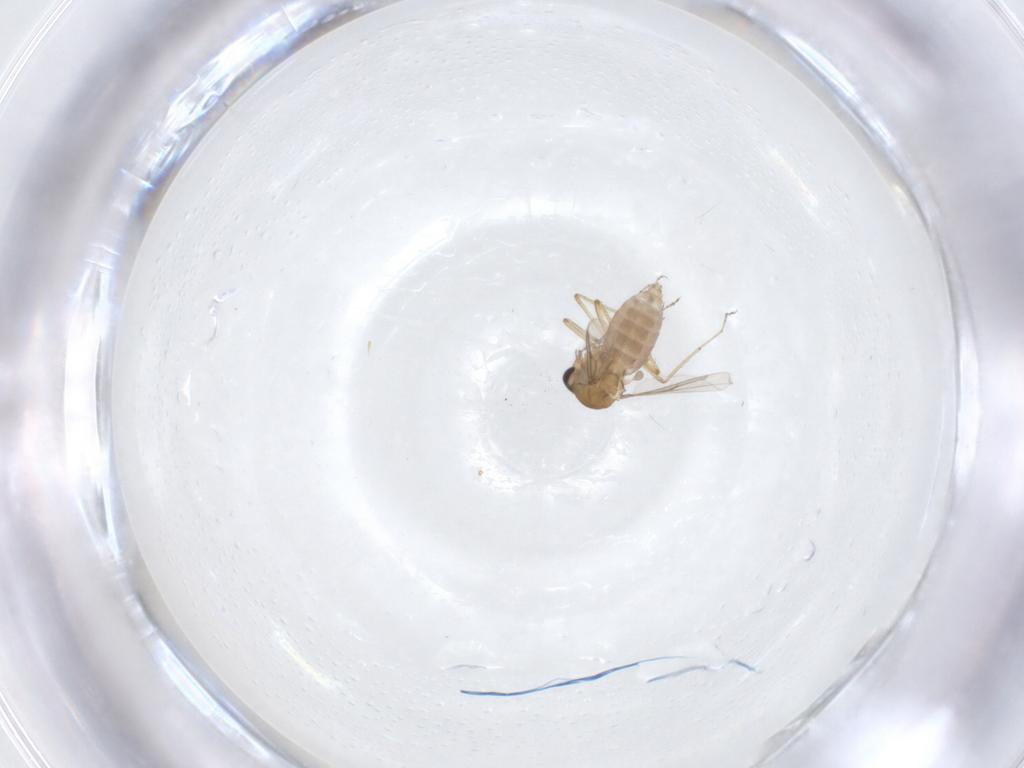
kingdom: Animalia
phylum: Arthropoda
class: Insecta
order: Diptera
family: Ceratopogonidae
